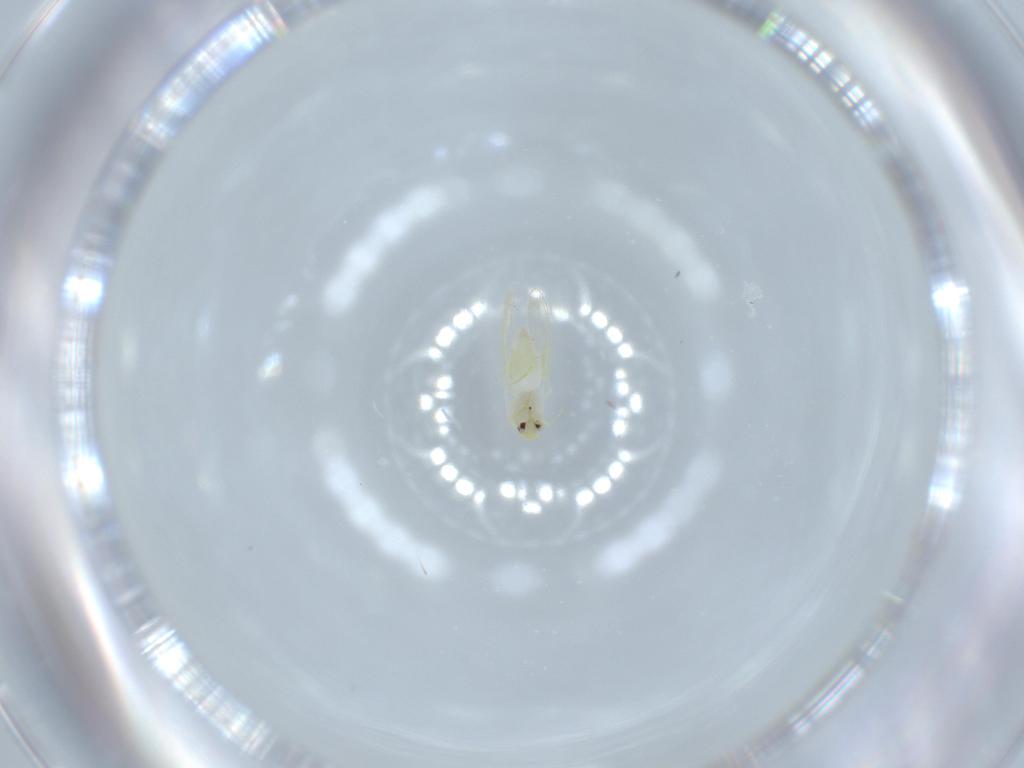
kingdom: Animalia
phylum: Arthropoda
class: Insecta
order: Hemiptera
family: Aleyrodidae
